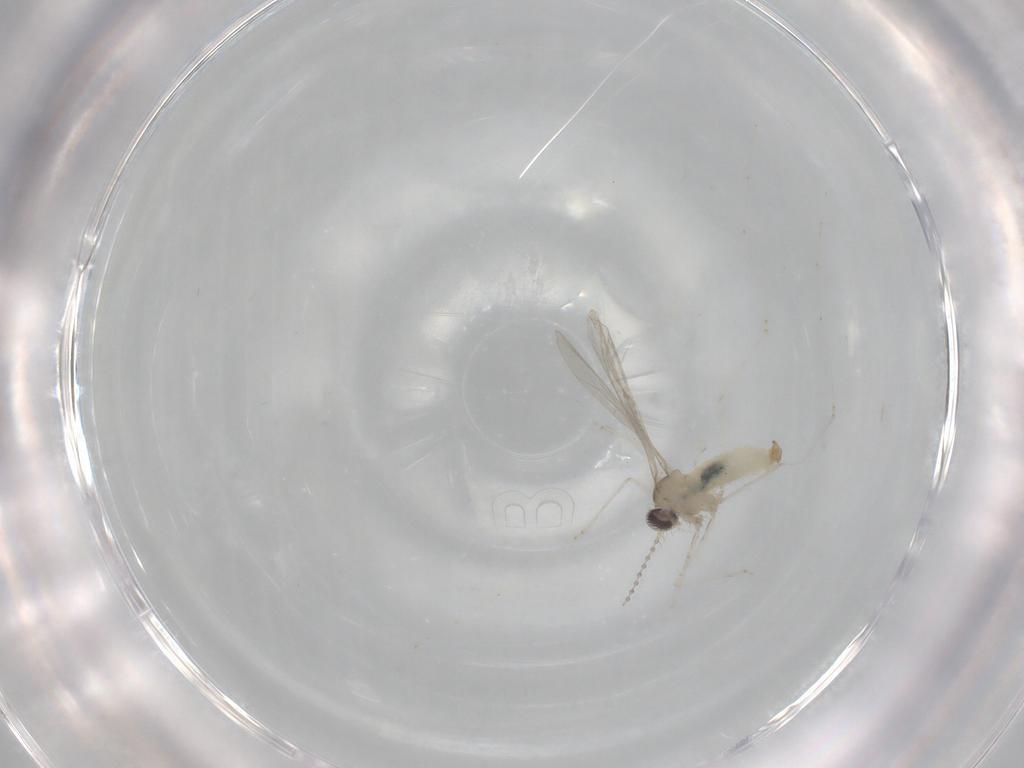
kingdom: Animalia
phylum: Arthropoda
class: Insecta
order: Diptera
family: Cecidomyiidae
